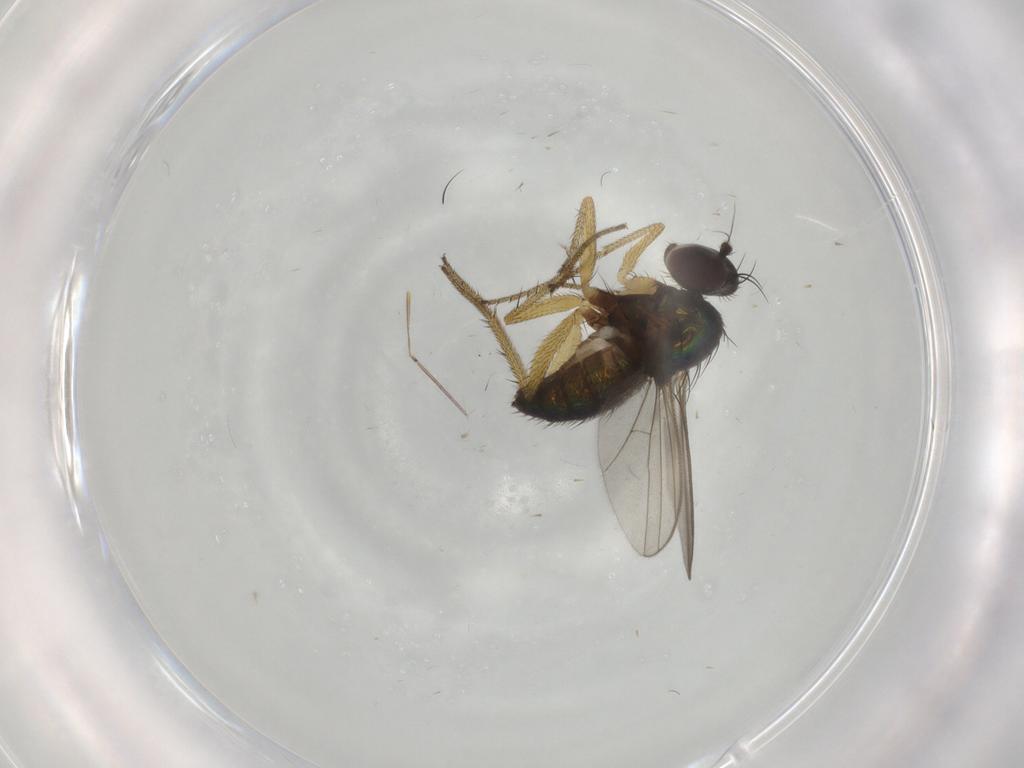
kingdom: Animalia
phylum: Arthropoda
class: Insecta
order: Diptera
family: Dolichopodidae
